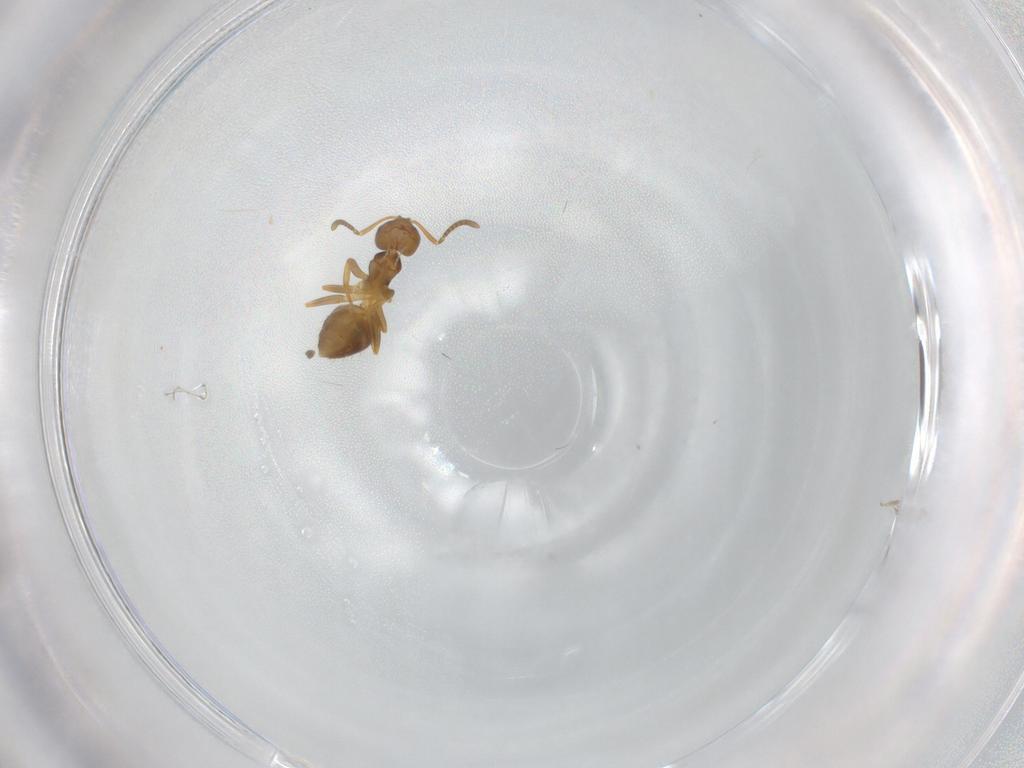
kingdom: Animalia
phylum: Arthropoda
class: Insecta
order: Hymenoptera
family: Formicidae
